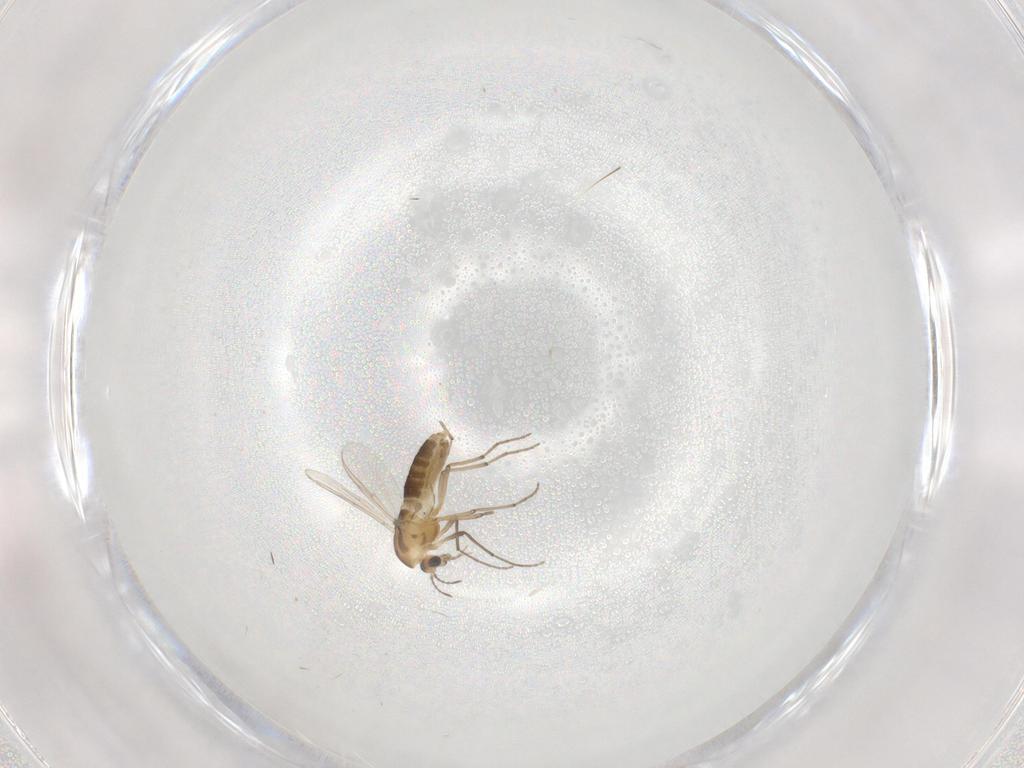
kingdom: Animalia
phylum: Arthropoda
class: Insecta
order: Diptera
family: Chironomidae
